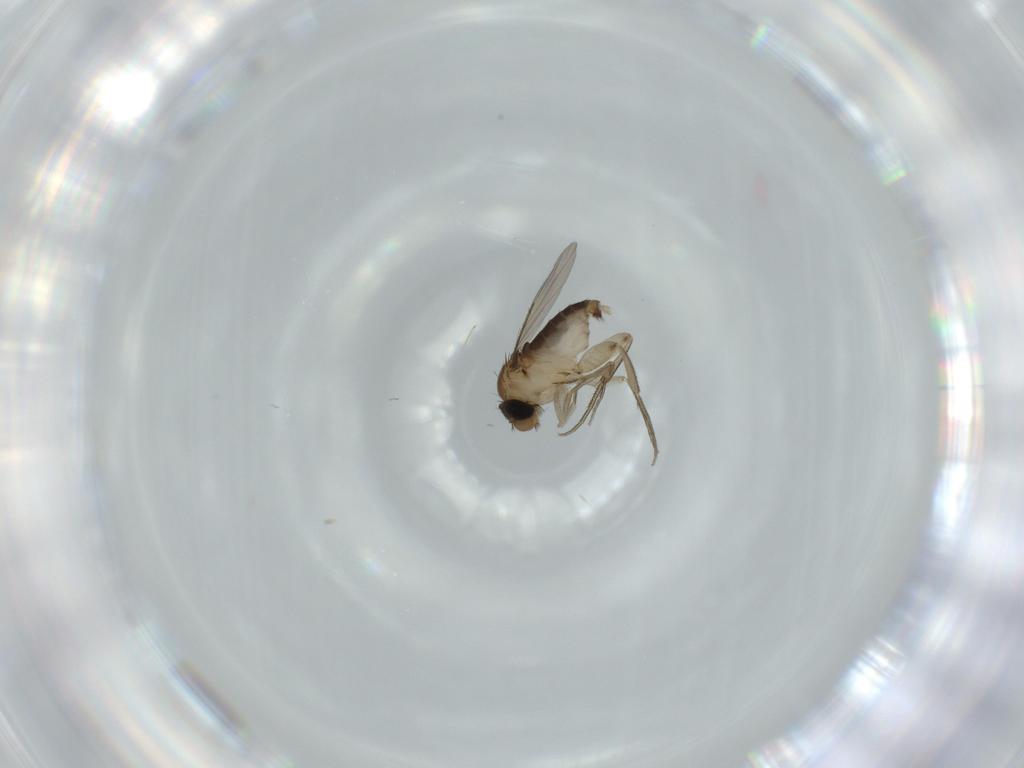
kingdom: Animalia
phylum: Arthropoda
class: Insecta
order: Diptera
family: Phoridae
